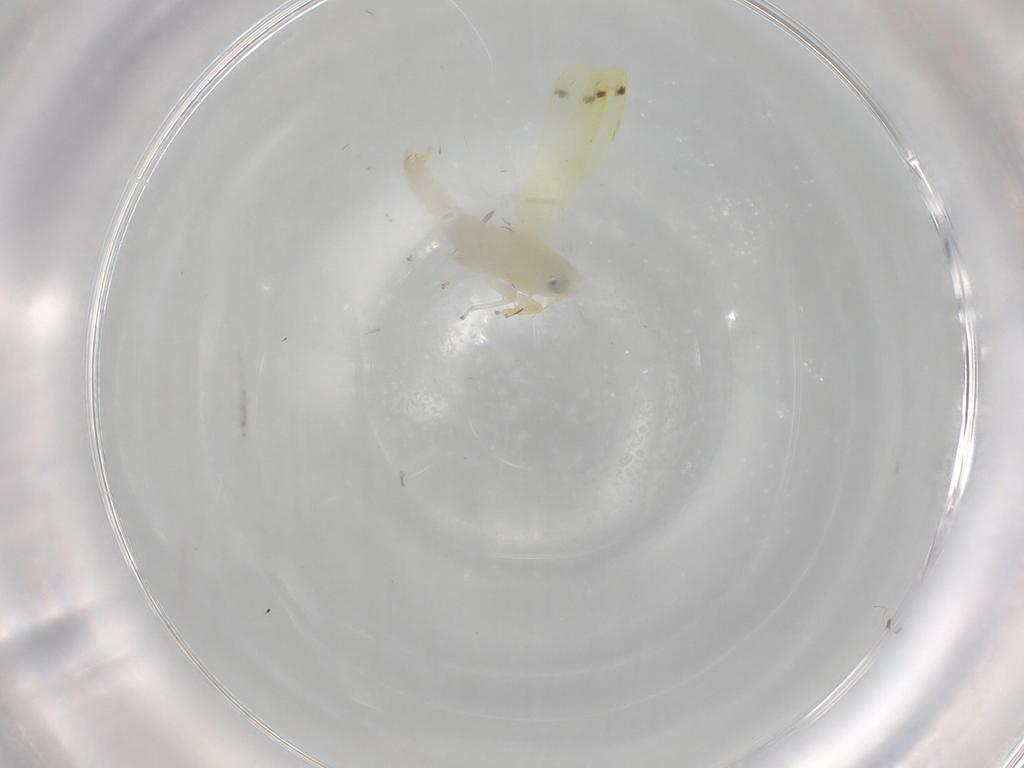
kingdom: Animalia
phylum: Arthropoda
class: Insecta
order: Hemiptera
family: Cicadellidae
